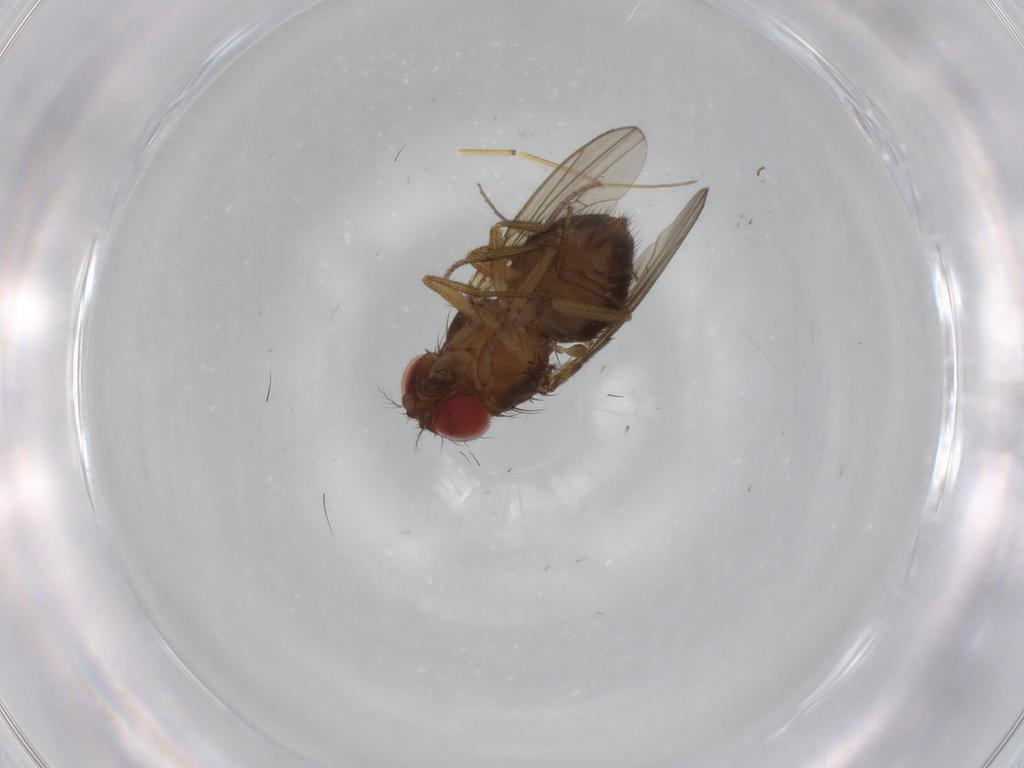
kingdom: Animalia
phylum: Arthropoda
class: Insecta
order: Diptera
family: Drosophilidae
